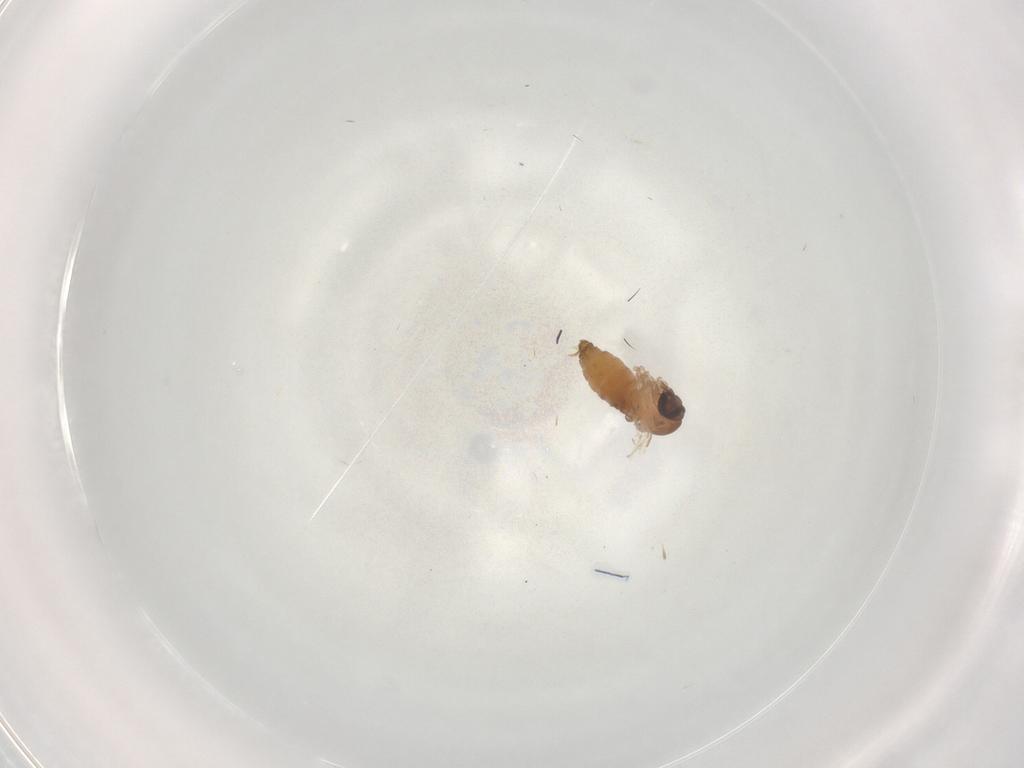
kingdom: Animalia
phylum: Arthropoda
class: Insecta
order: Diptera
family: Psychodidae
